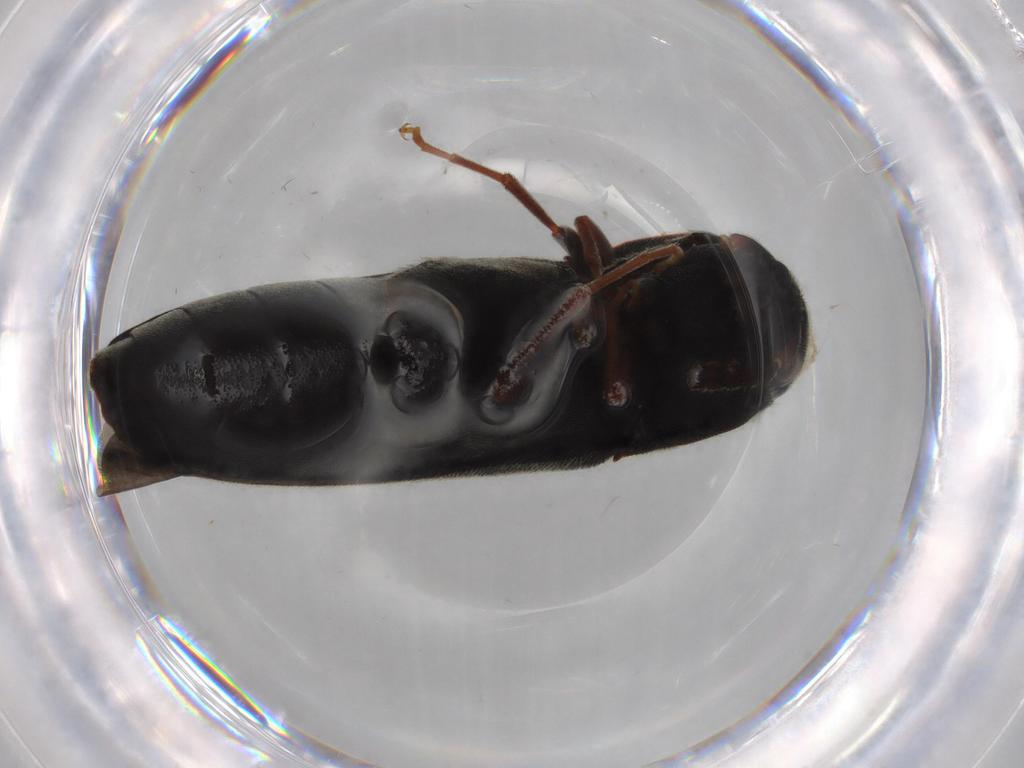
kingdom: Animalia
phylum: Arthropoda
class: Insecta
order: Coleoptera
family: Eucnemidae
